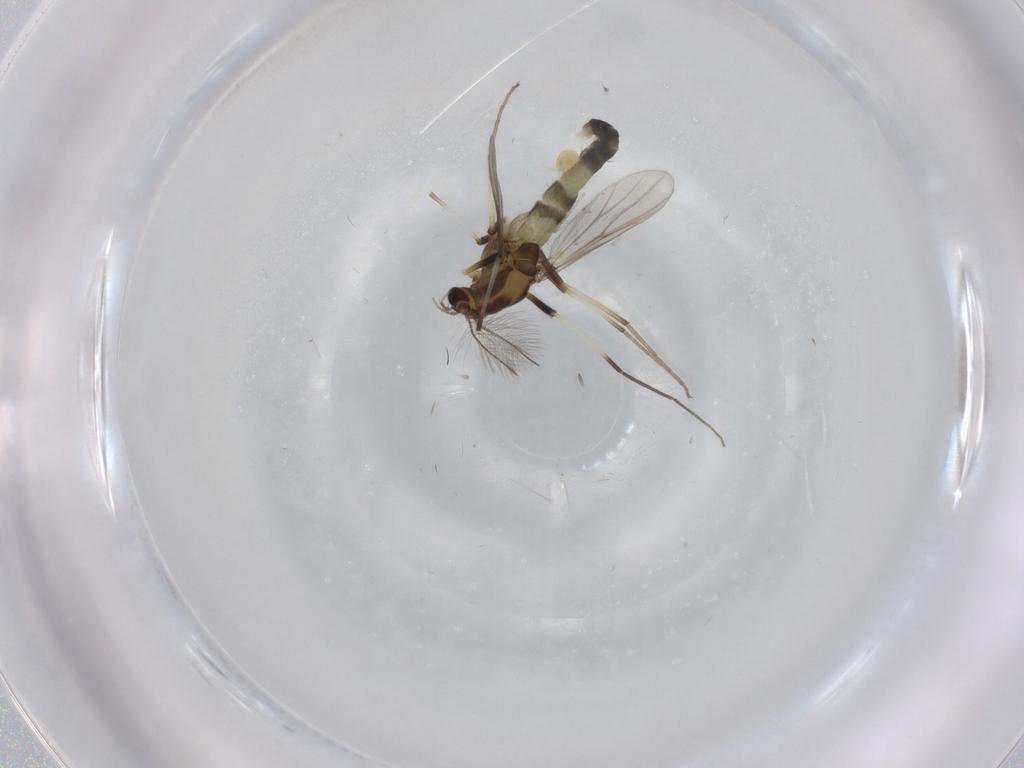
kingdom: Animalia
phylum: Arthropoda
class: Insecta
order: Diptera
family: Chironomidae
